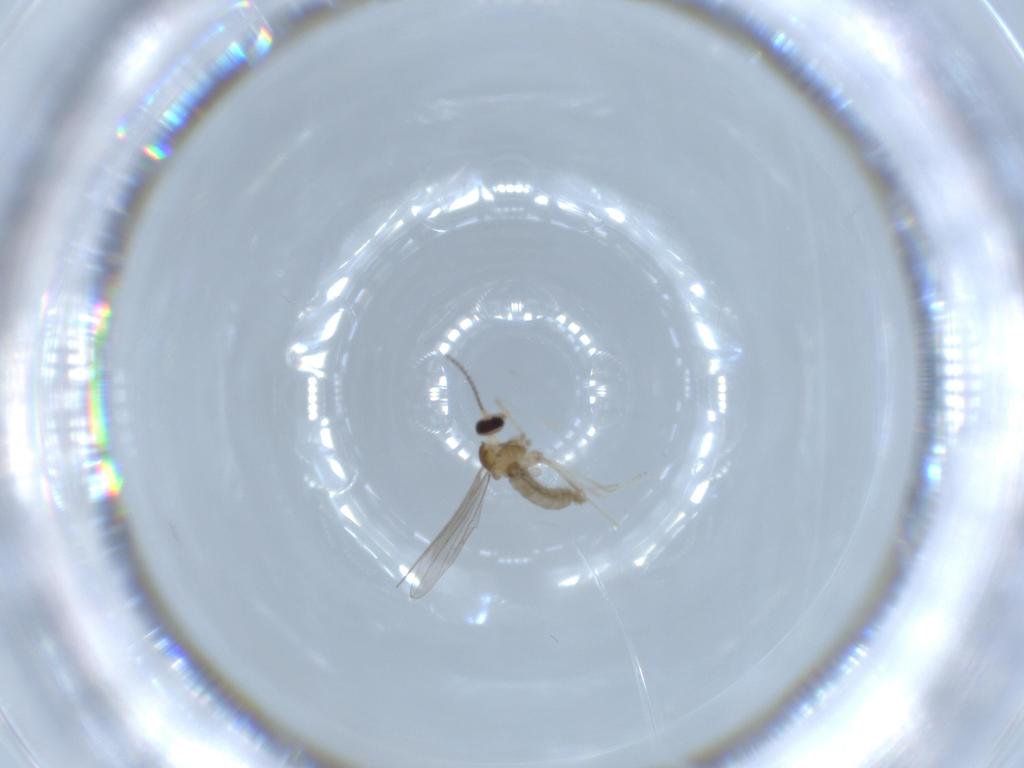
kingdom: Animalia
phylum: Arthropoda
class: Insecta
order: Diptera
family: Cecidomyiidae
